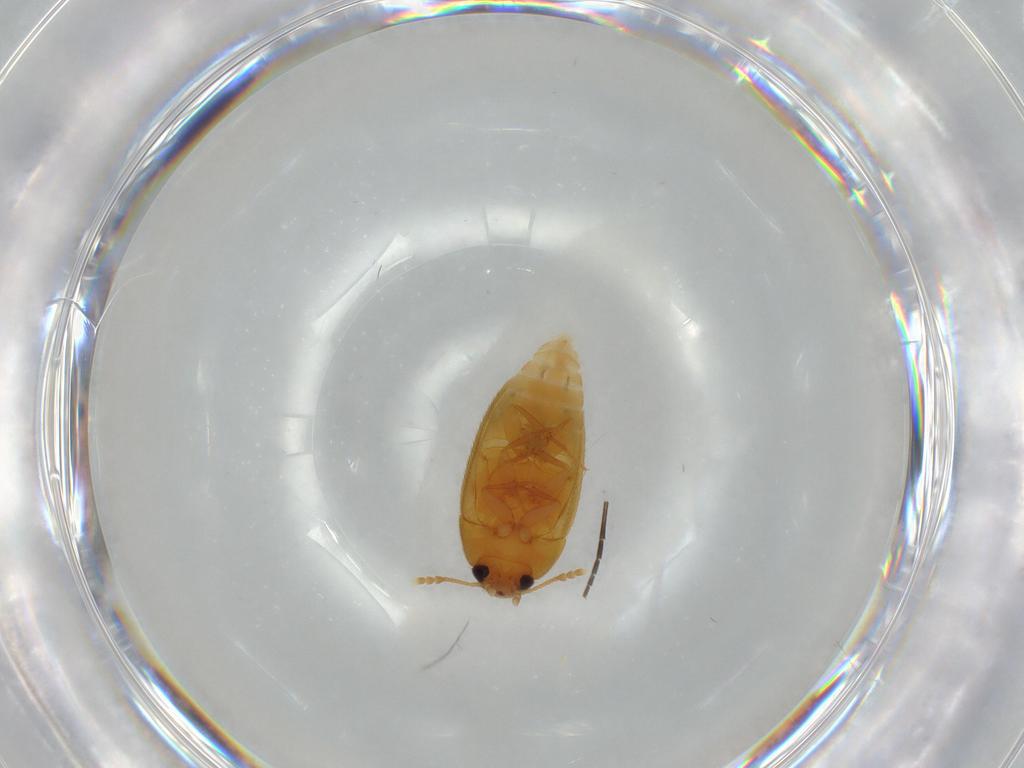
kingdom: Animalia
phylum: Arthropoda
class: Insecta
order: Coleoptera
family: Mycetophagidae
